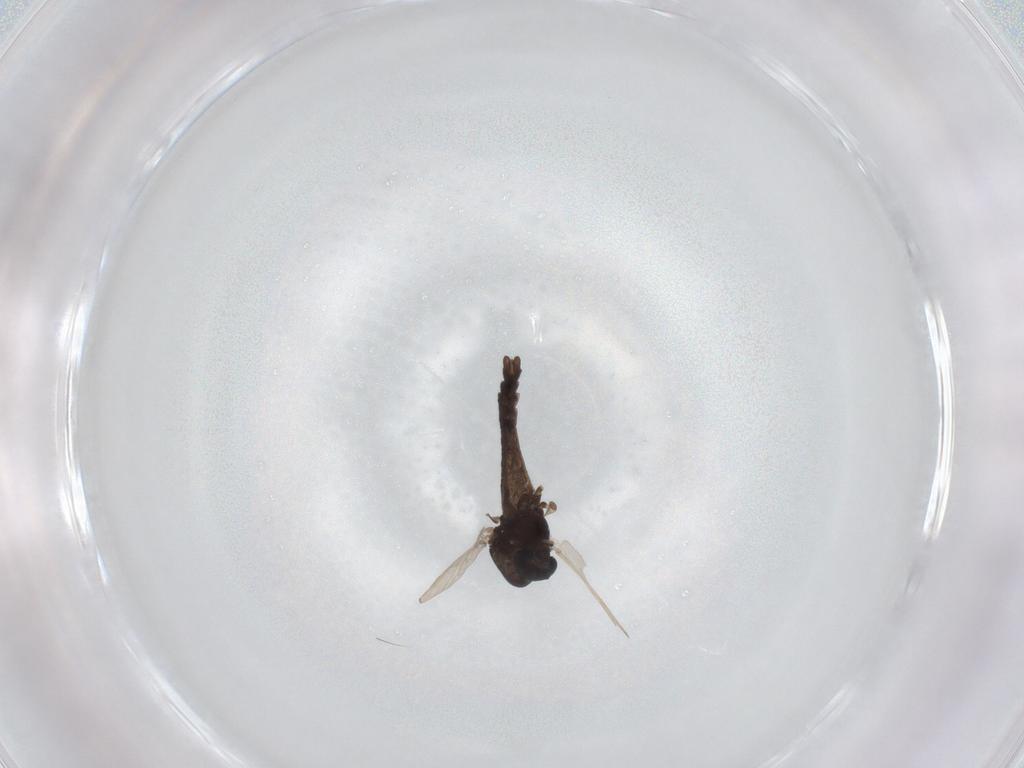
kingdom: Animalia
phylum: Arthropoda
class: Insecta
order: Diptera
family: Chironomidae
